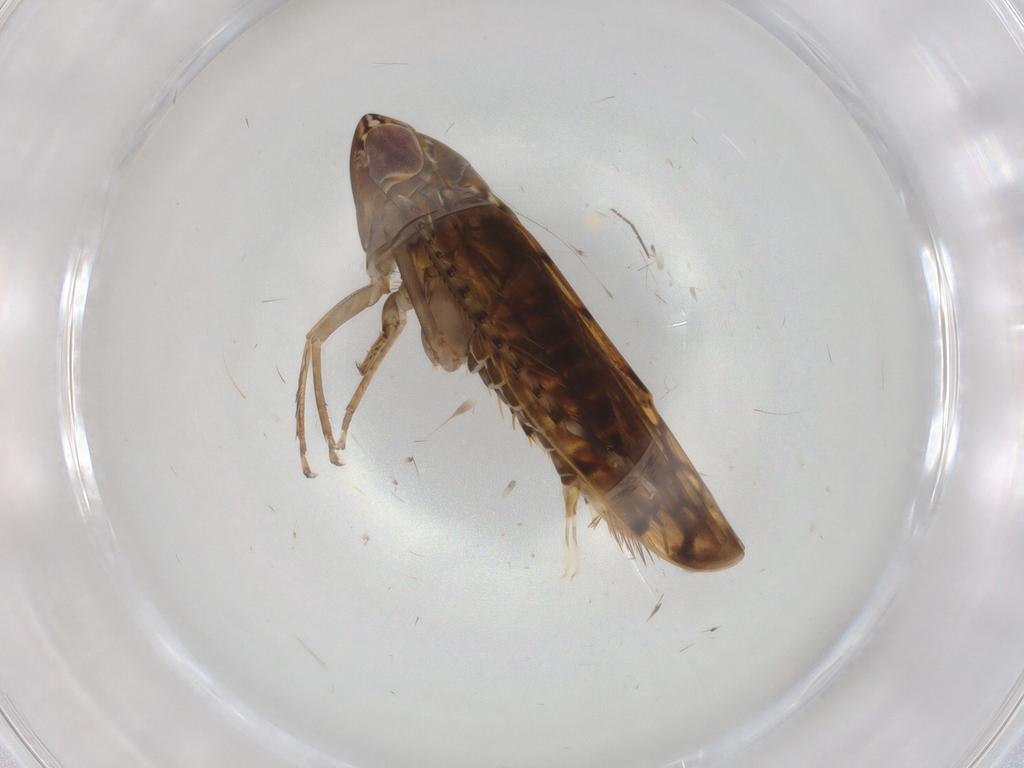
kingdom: Animalia
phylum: Arthropoda
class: Insecta
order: Hemiptera
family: Cicadellidae
